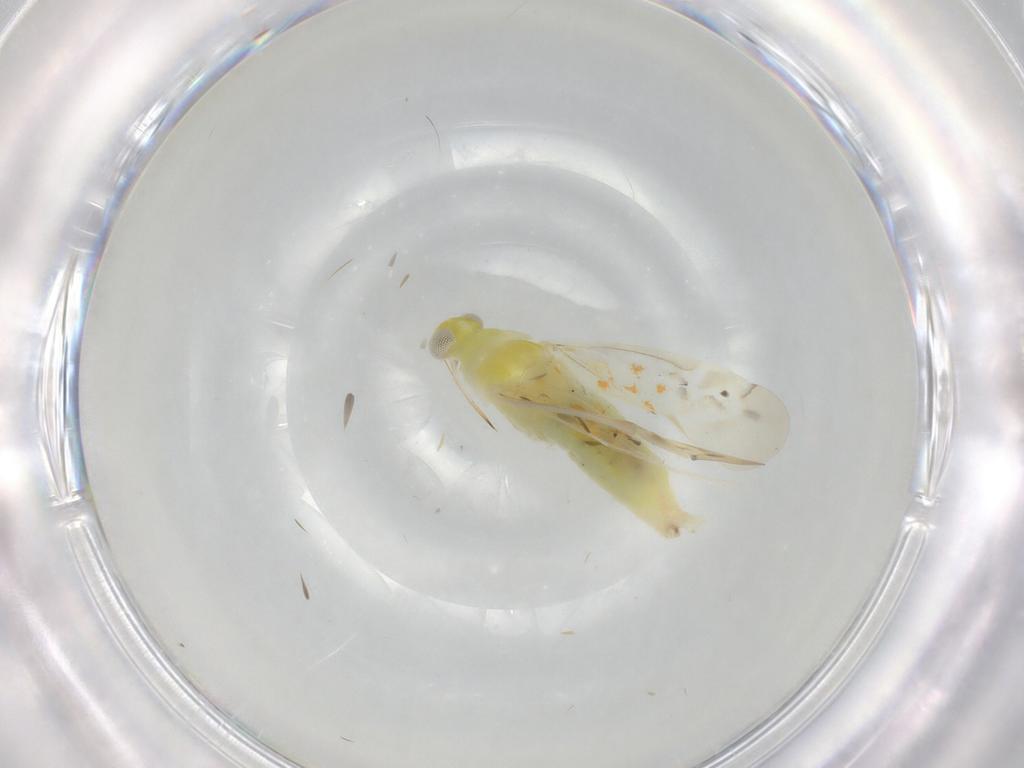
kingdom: Animalia
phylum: Arthropoda
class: Insecta
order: Hemiptera
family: Aleyrodidae
